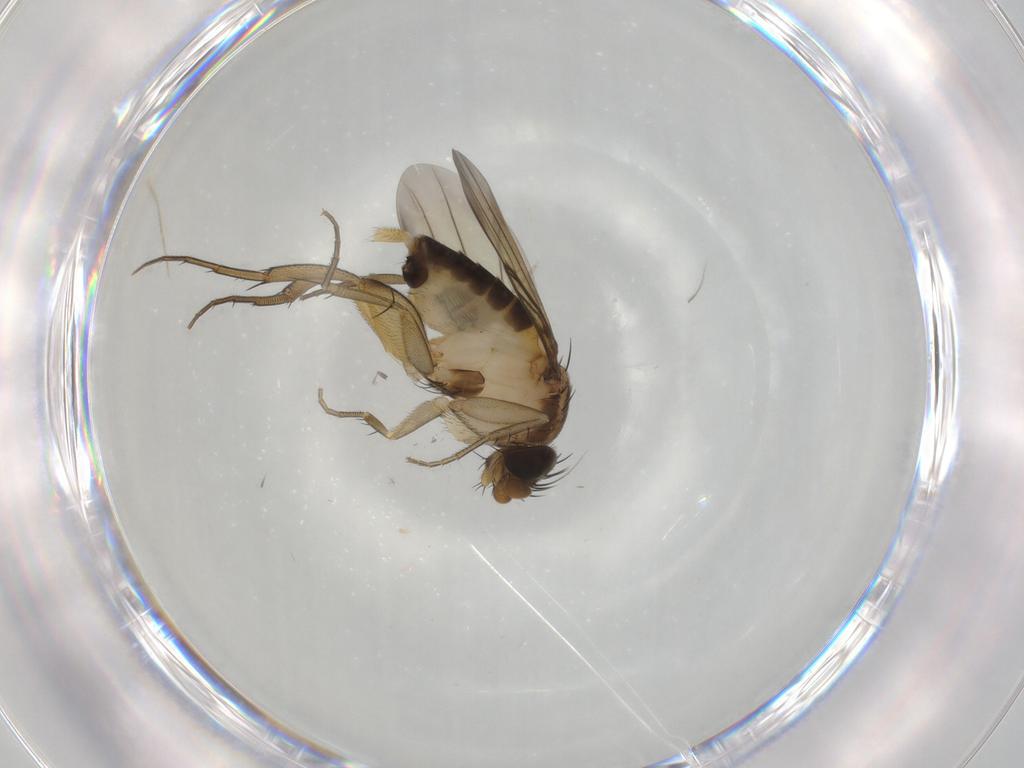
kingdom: Animalia
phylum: Arthropoda
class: Insecta
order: Diptera
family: Phoridae
